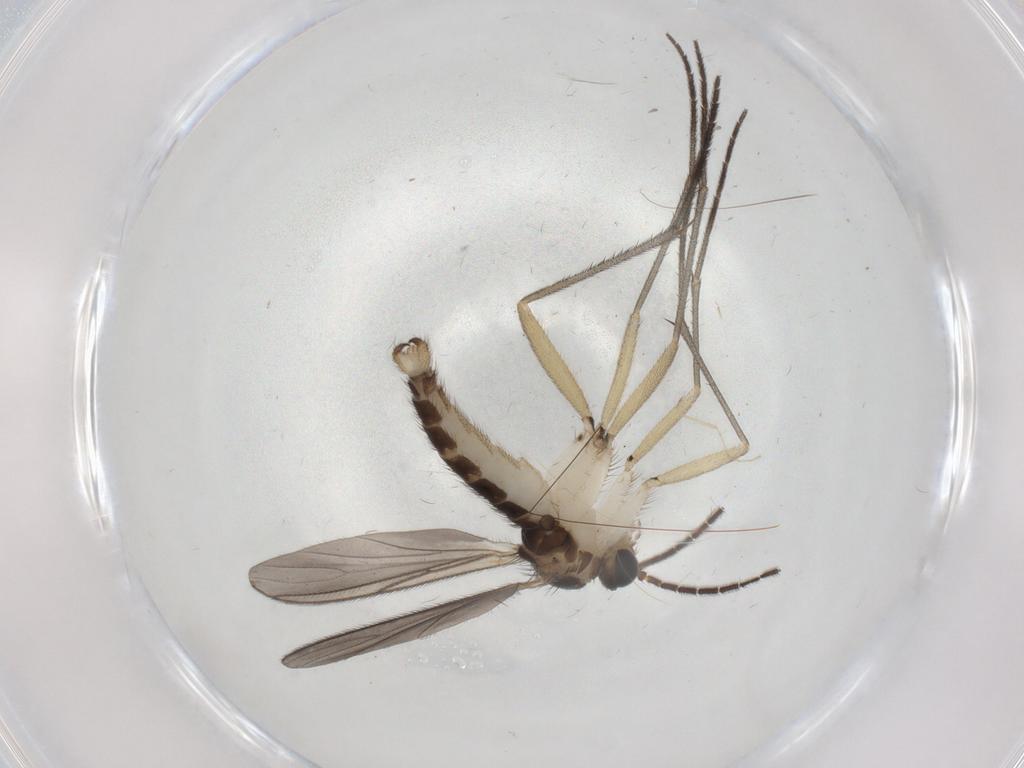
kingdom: Animalia
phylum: Arthropoda
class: Insecta
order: Diptera
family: Sciaridae
